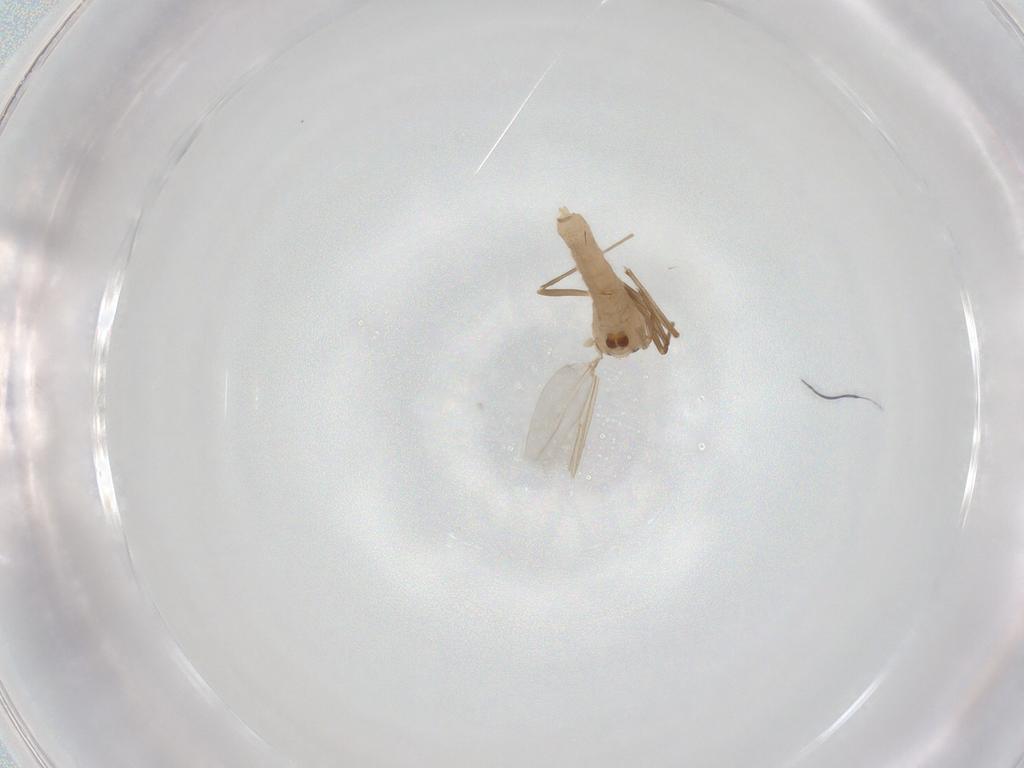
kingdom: Animalia
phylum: Arthropoda
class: Insecta
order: Diptera
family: Chironomidae
